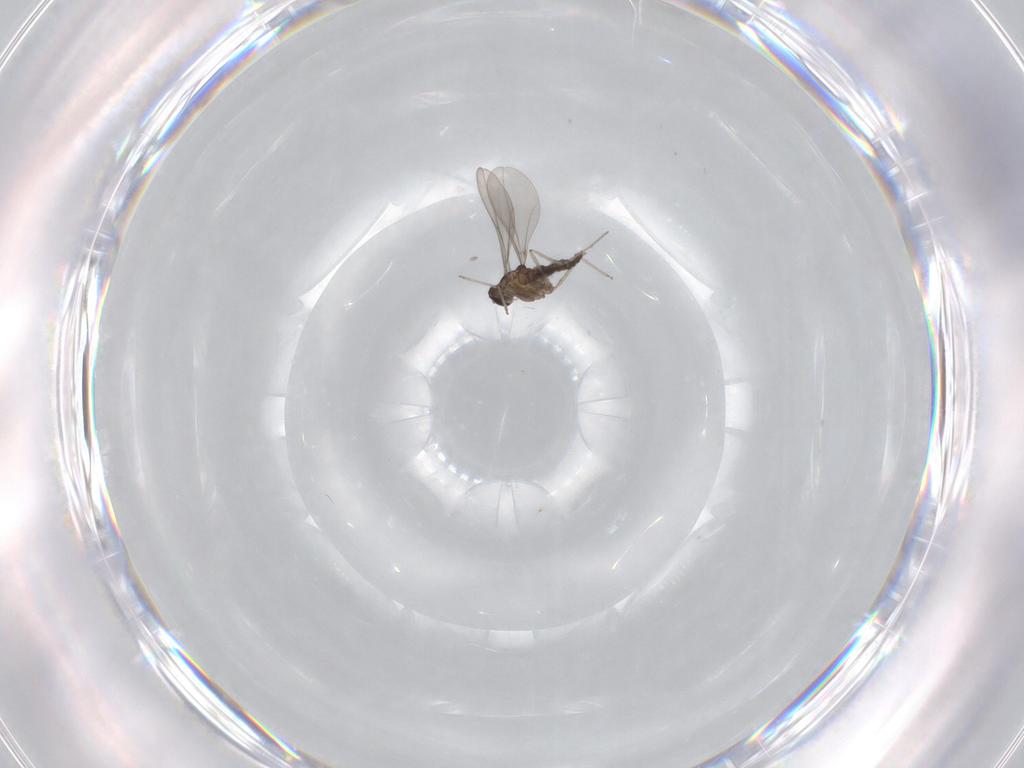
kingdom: Animalia
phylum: Arthropoda
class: Insecta
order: Diptera
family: Cecidomyiidae
